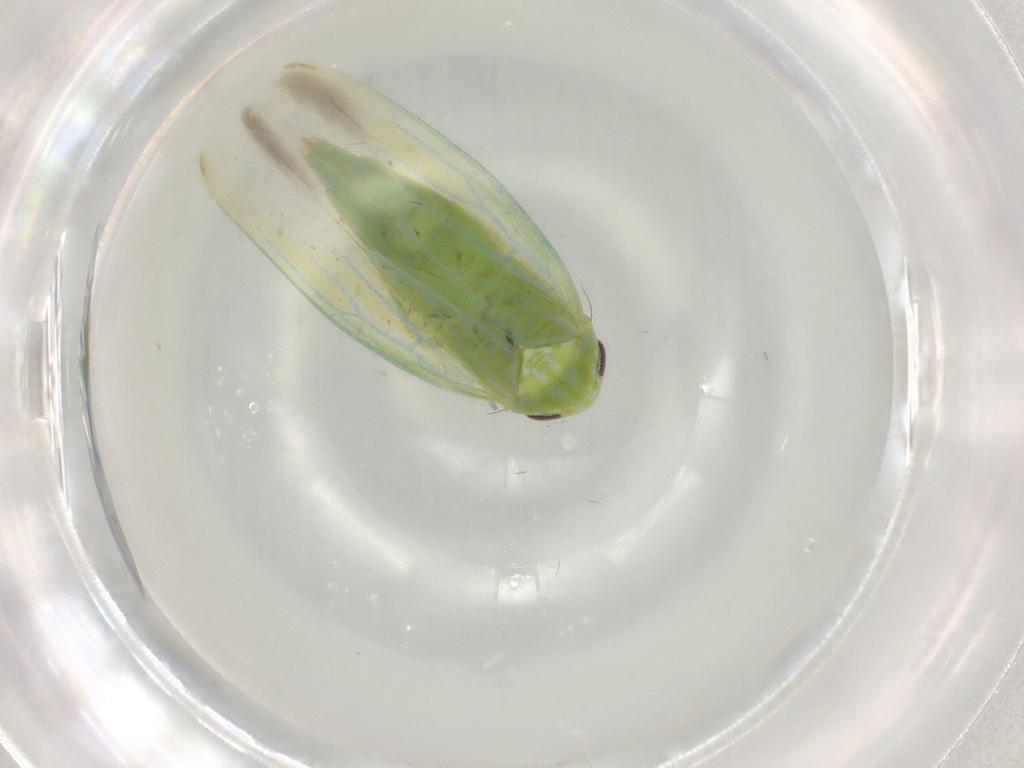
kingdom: Animalia
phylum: Arthropoda
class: Insecta
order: Hemiptera
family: Cicadellidae
